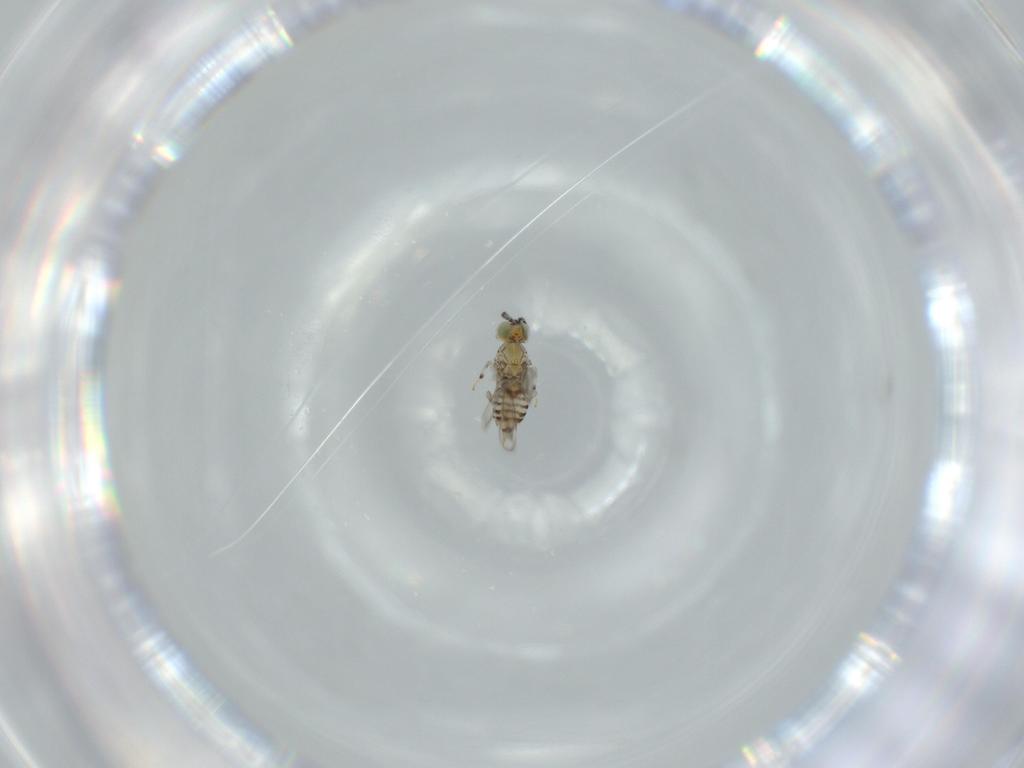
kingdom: Animalia
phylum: Arthropoda
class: Insecta
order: Hymenoptera
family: Aphelinidae
